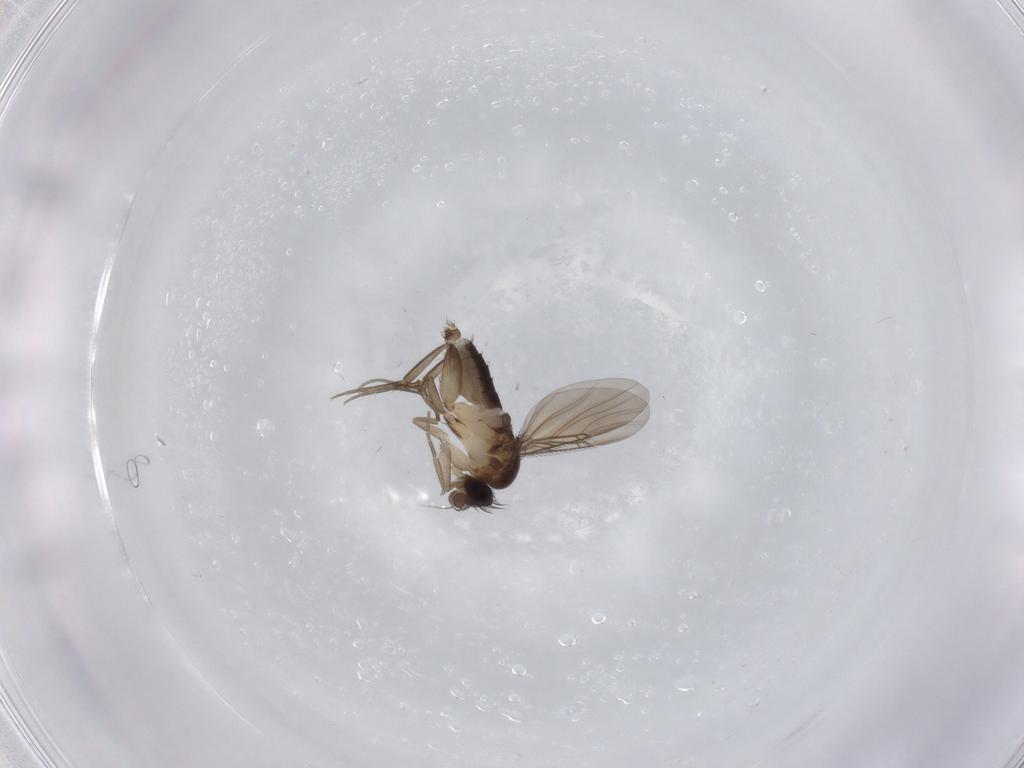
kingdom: Animalia
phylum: Arthropoda
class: Insecta
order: Diptera
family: Phoridae
